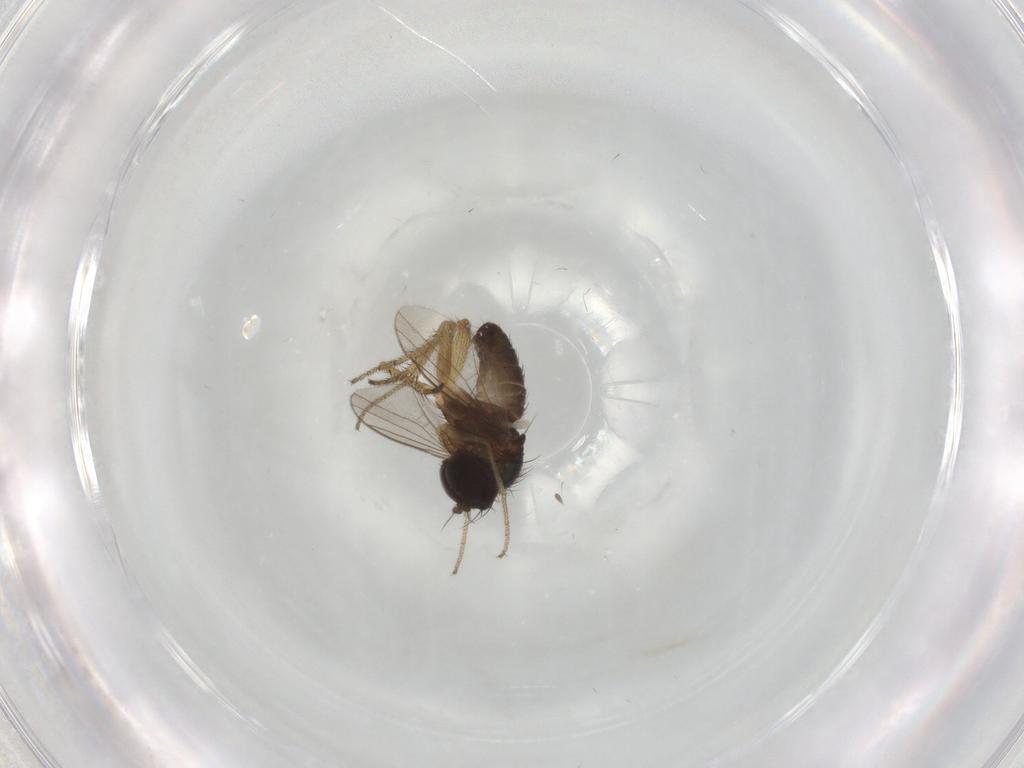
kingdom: Animalia
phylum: Arthropoda
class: Insecta
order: Diptera
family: Dolichopodidae
